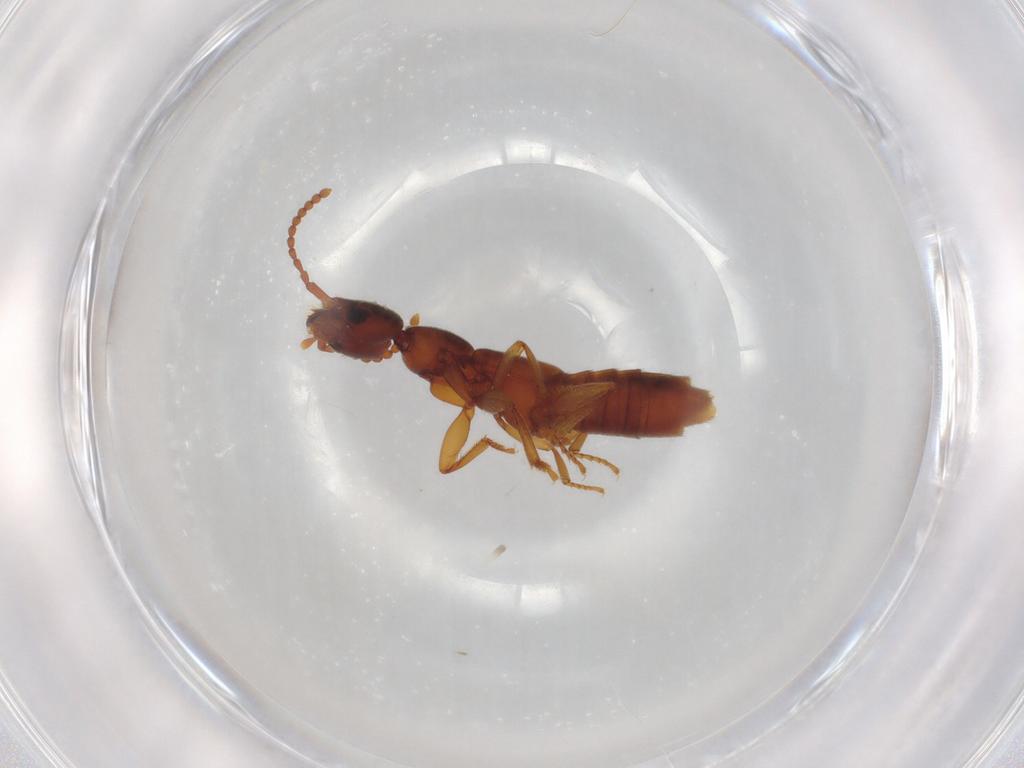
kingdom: Animalia
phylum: Arthropoda
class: Insecta
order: Coleoptera
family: Staphylinidae
